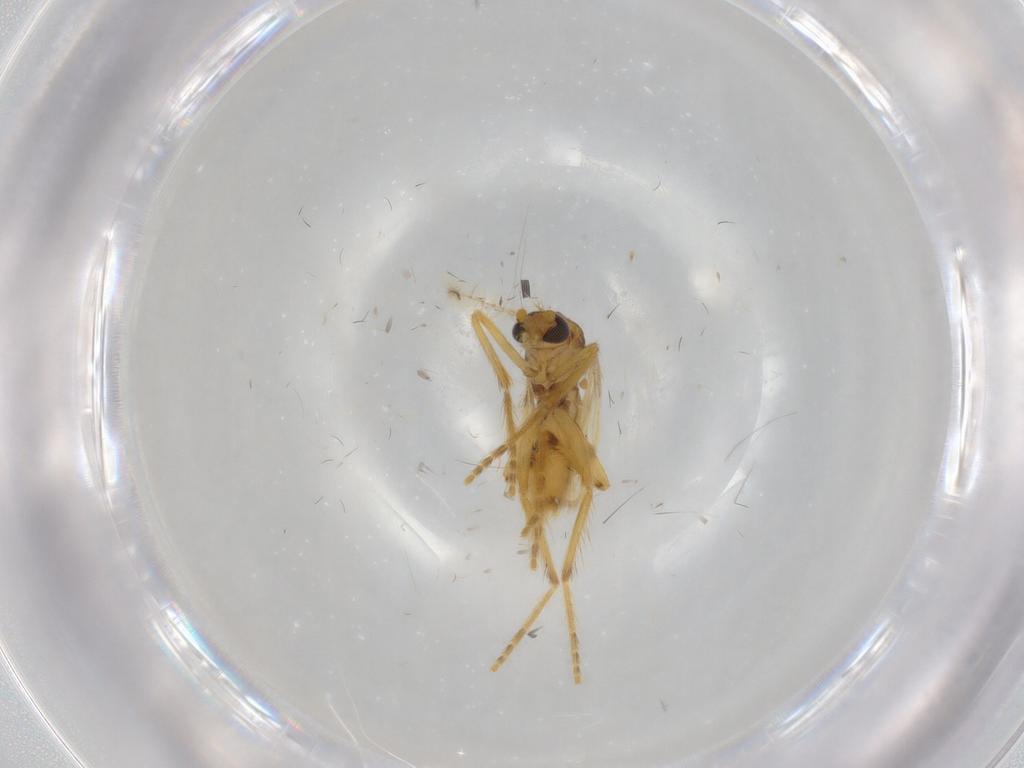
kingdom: Animalia
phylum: Arthropoda
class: Insecta
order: Diptera
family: Corethrellidae
